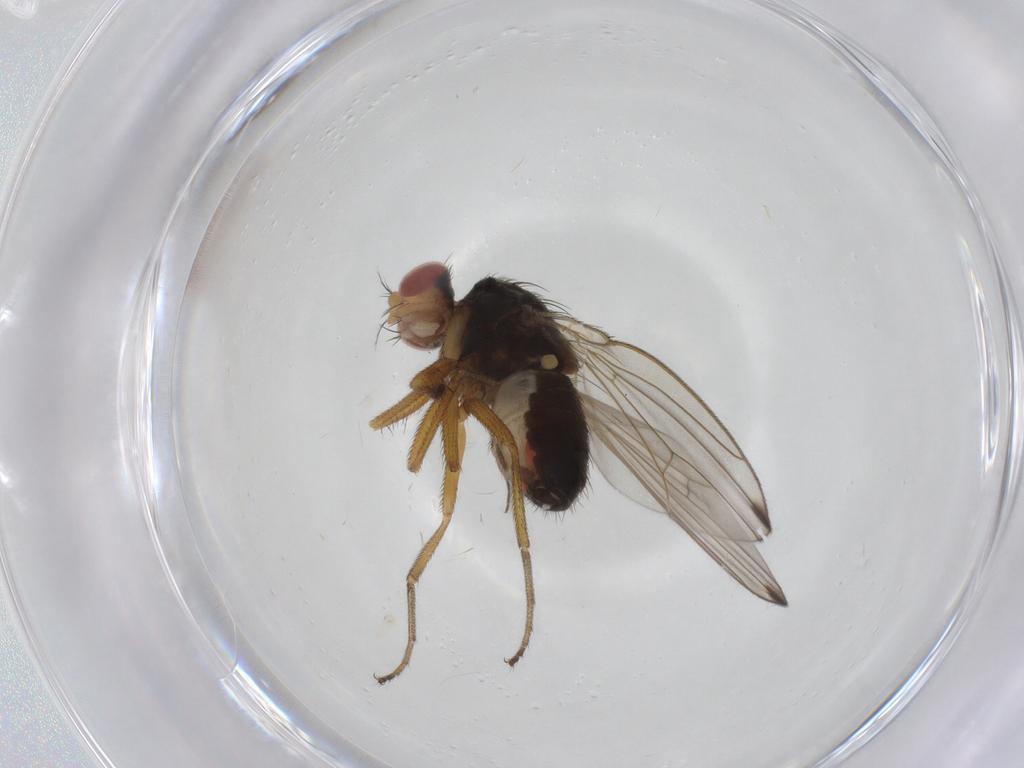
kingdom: Animalia
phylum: Arthropoda
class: Insecta
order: Diptera
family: Drosophilidae
